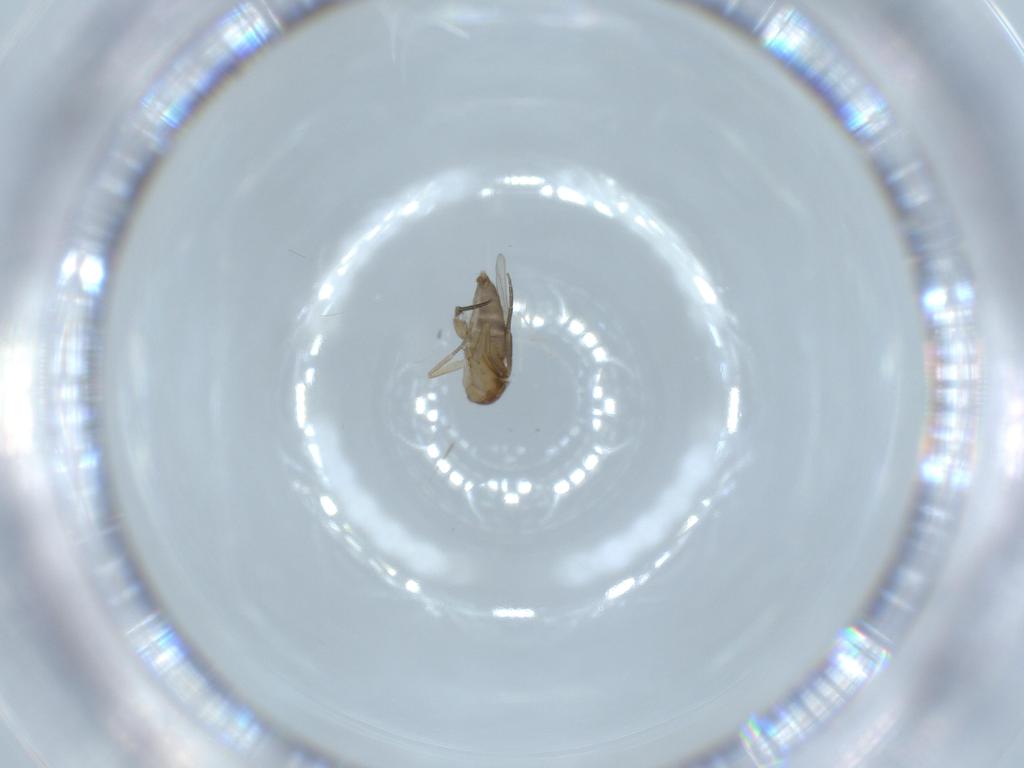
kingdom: Animalia
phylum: Arthropoda
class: Insecta
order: Diptera
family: Phoridae
